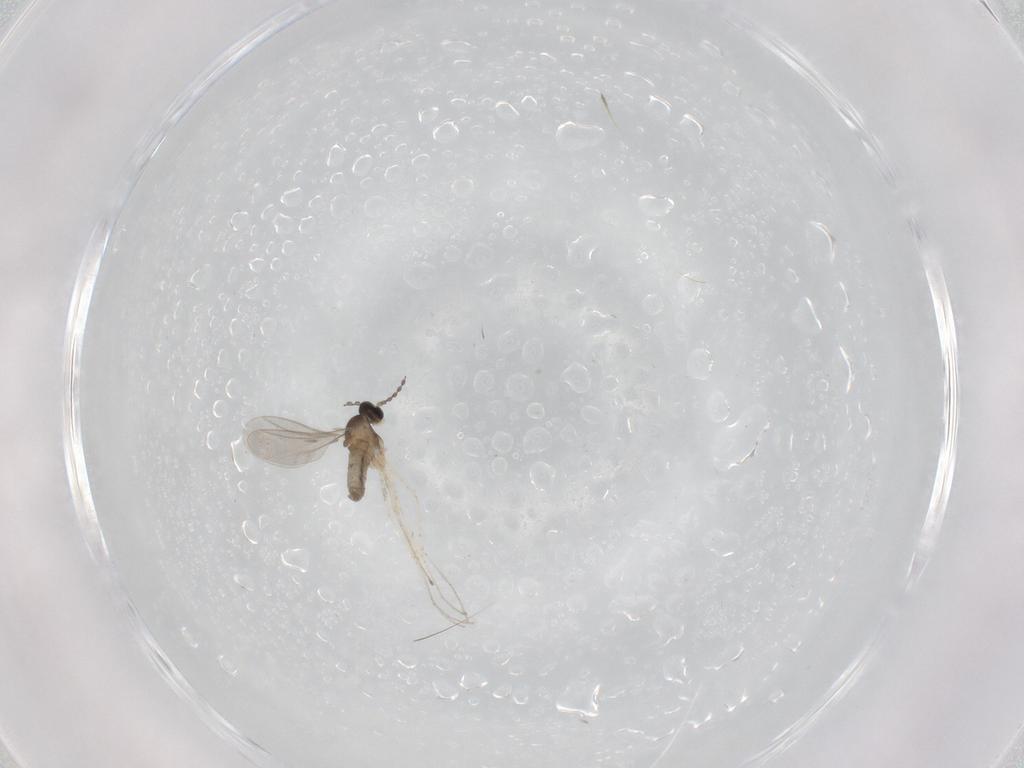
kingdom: Animalia
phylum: Arthropoda
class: Insecta
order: Diptera
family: Cecidomyiidae
